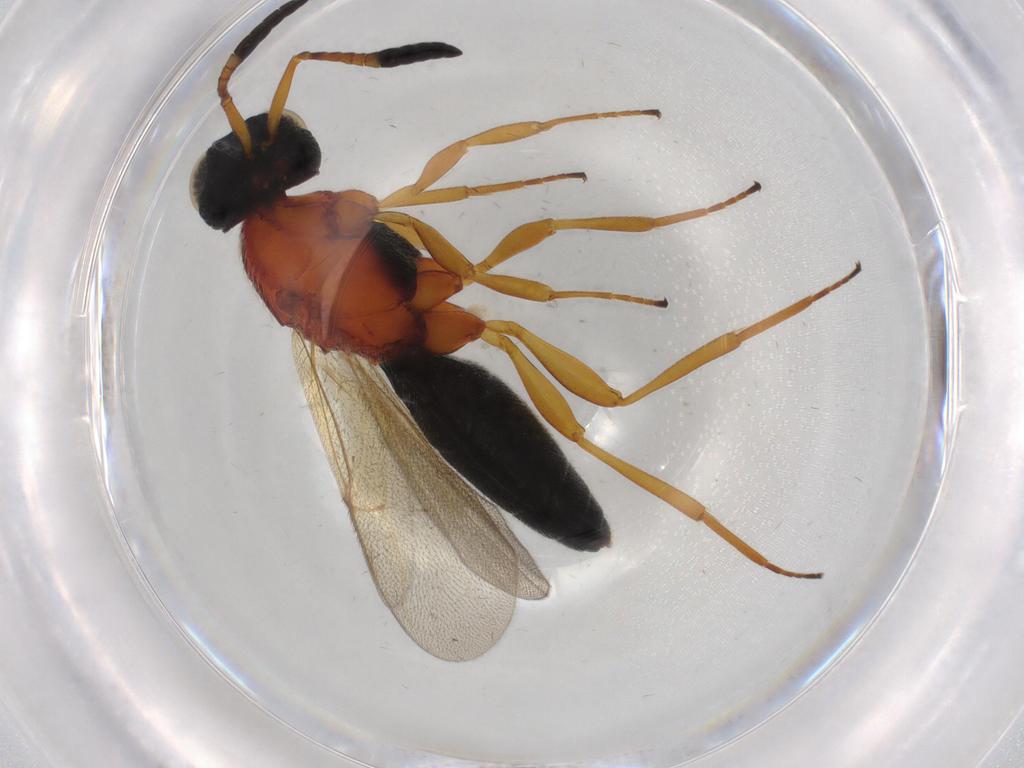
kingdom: Animalia
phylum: Arthropoda
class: Insecta
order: Hymenoptera
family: Scelionidae
